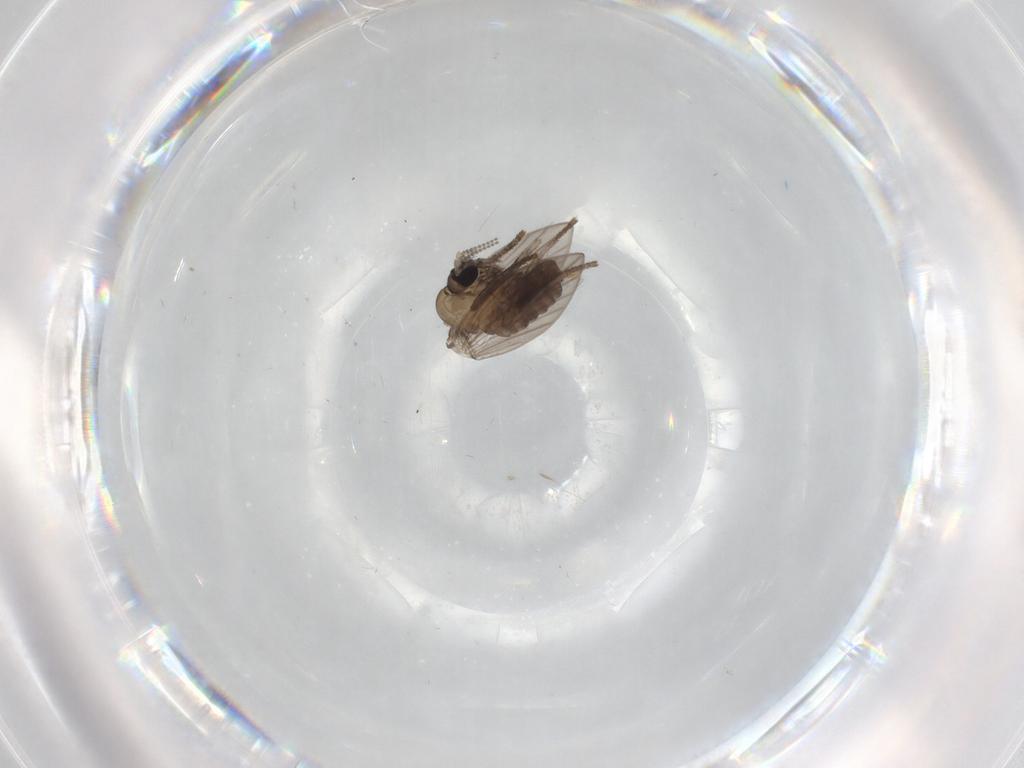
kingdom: Animalia
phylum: Arthropoda
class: Insecta
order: Diptera
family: Psychodidae
